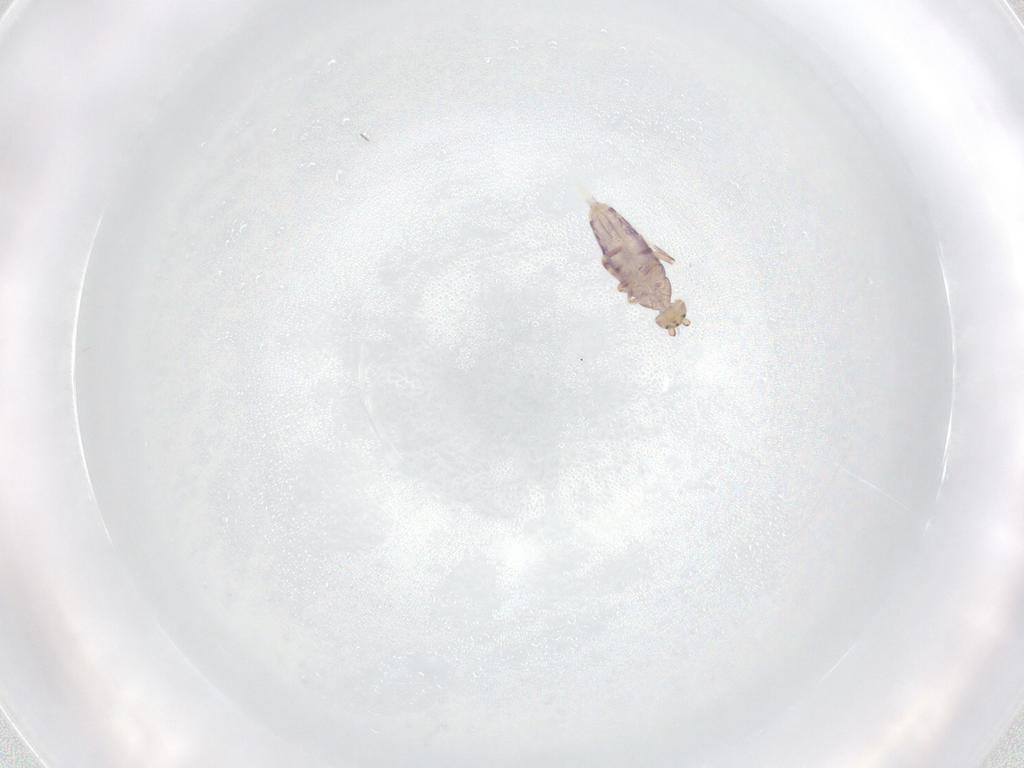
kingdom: Animalia
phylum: Arthropoda
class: Collembola
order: Entomobryomorpha
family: Entomobryidae
